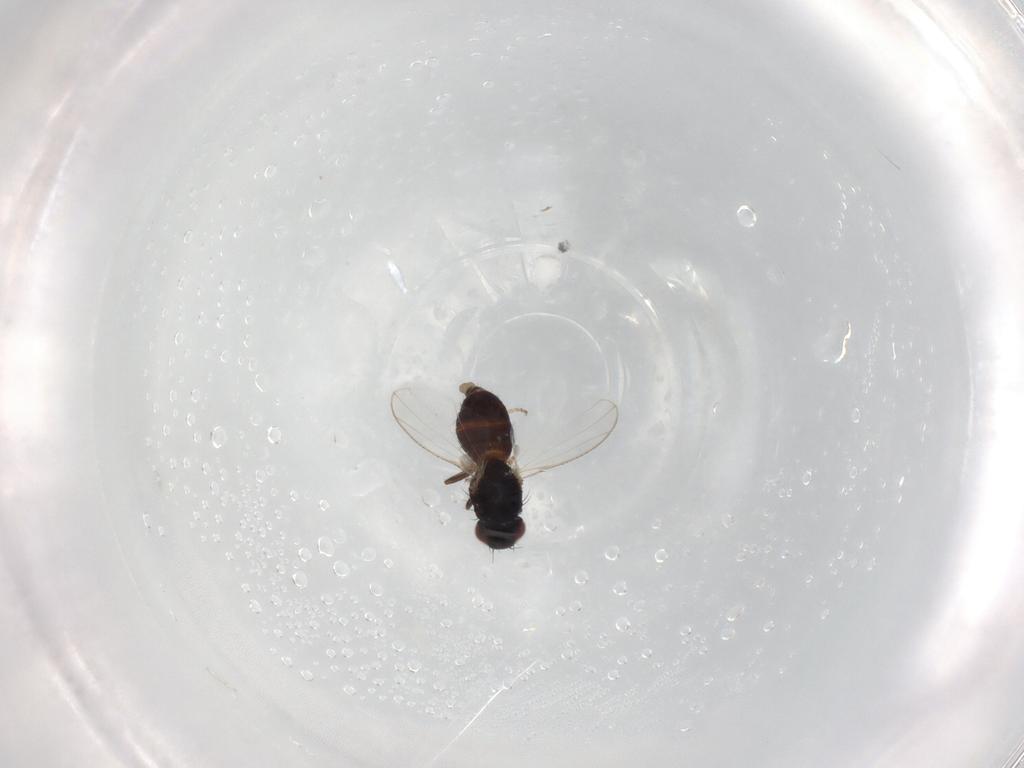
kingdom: Animalia
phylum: Arthropoda
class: Insecta
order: Diptera
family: Carnidae
